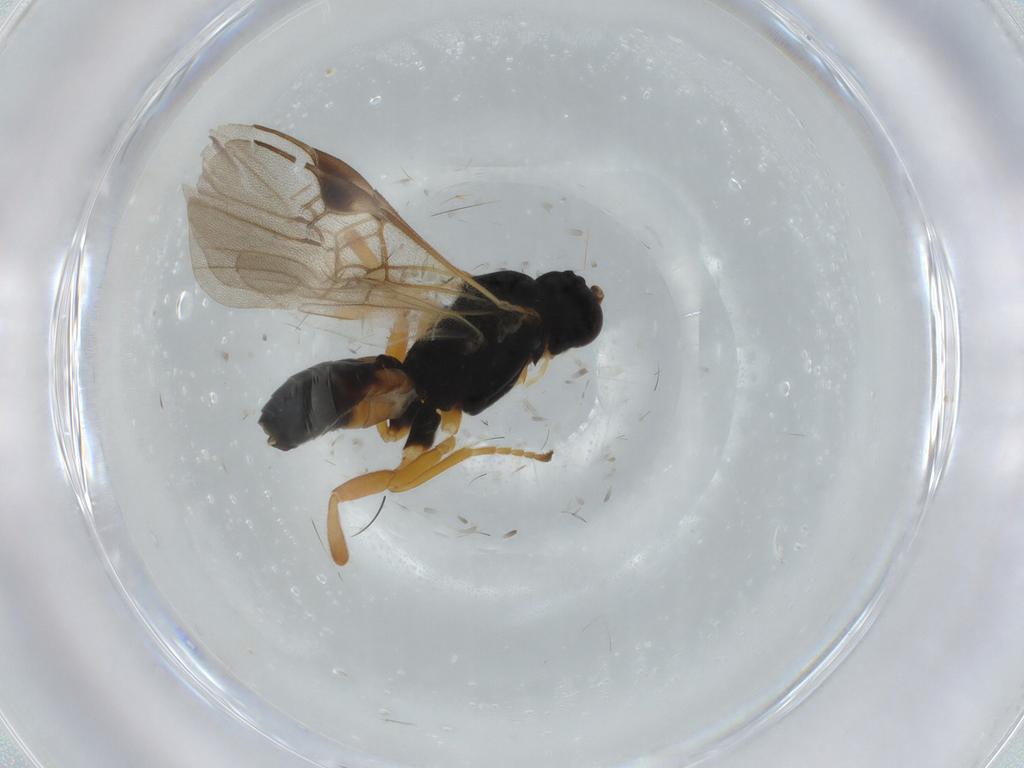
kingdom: Animalia
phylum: Arthropoda
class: Insecta
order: Hymenoptera
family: Braconidae
